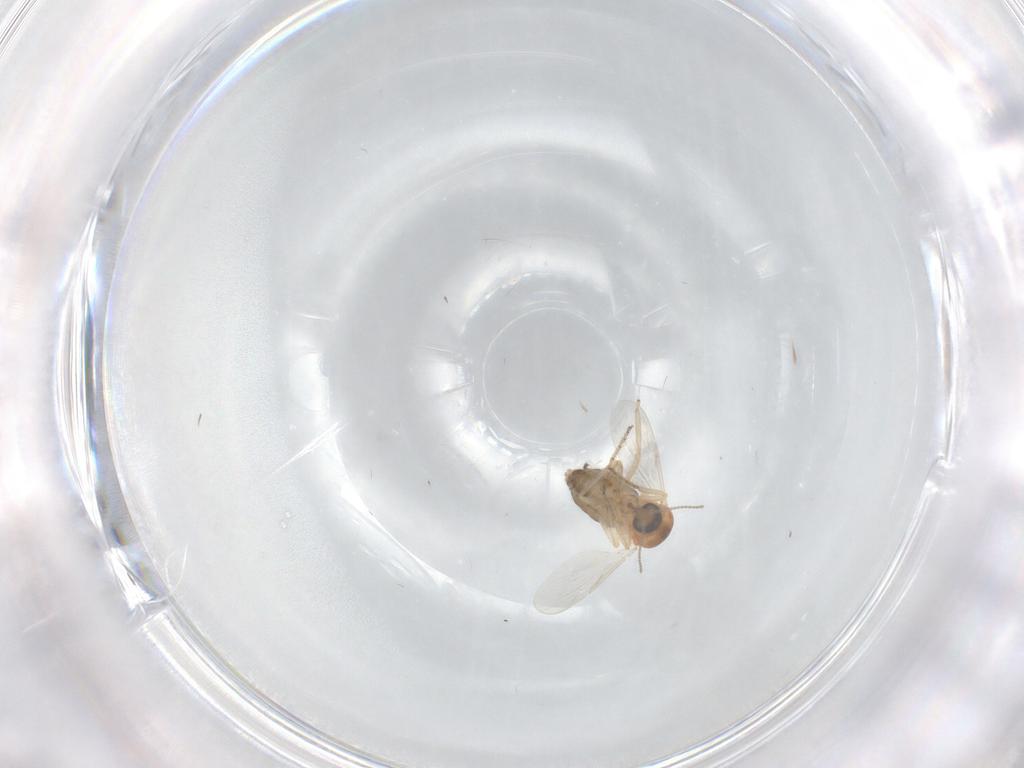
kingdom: Animalia
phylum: Arthropoda
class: Insecta
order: Diptera
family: Ceratopogonidae
